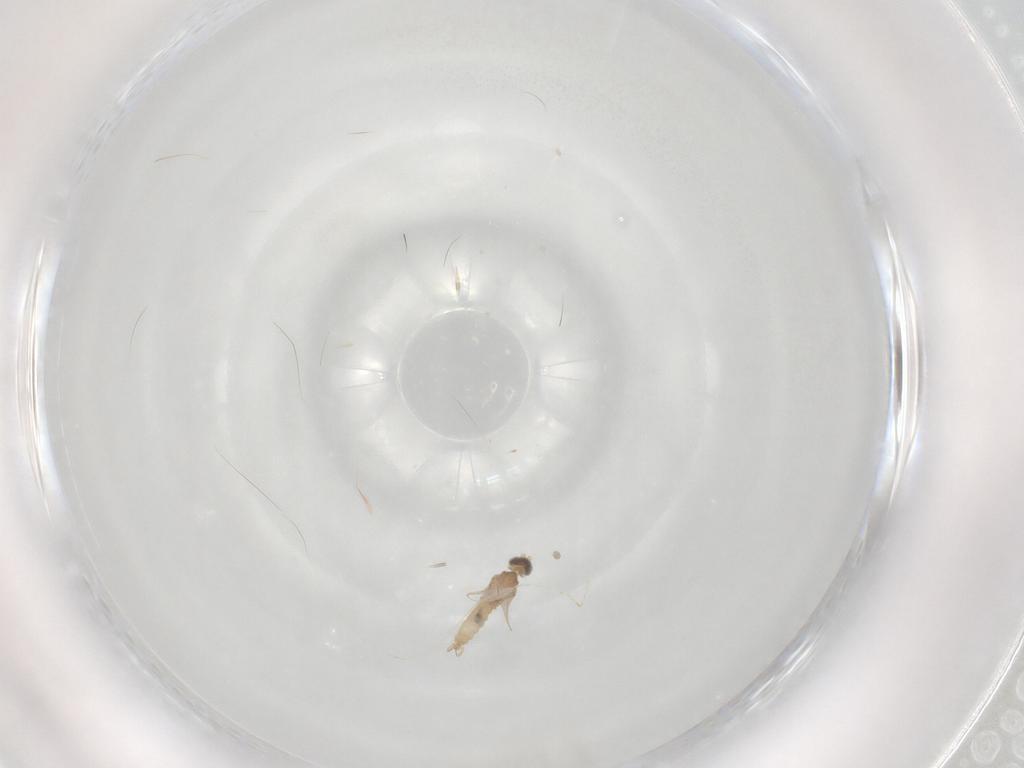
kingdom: Animalia
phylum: Arthropoda
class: Insecta
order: Diptera
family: Cecidomyiidae
